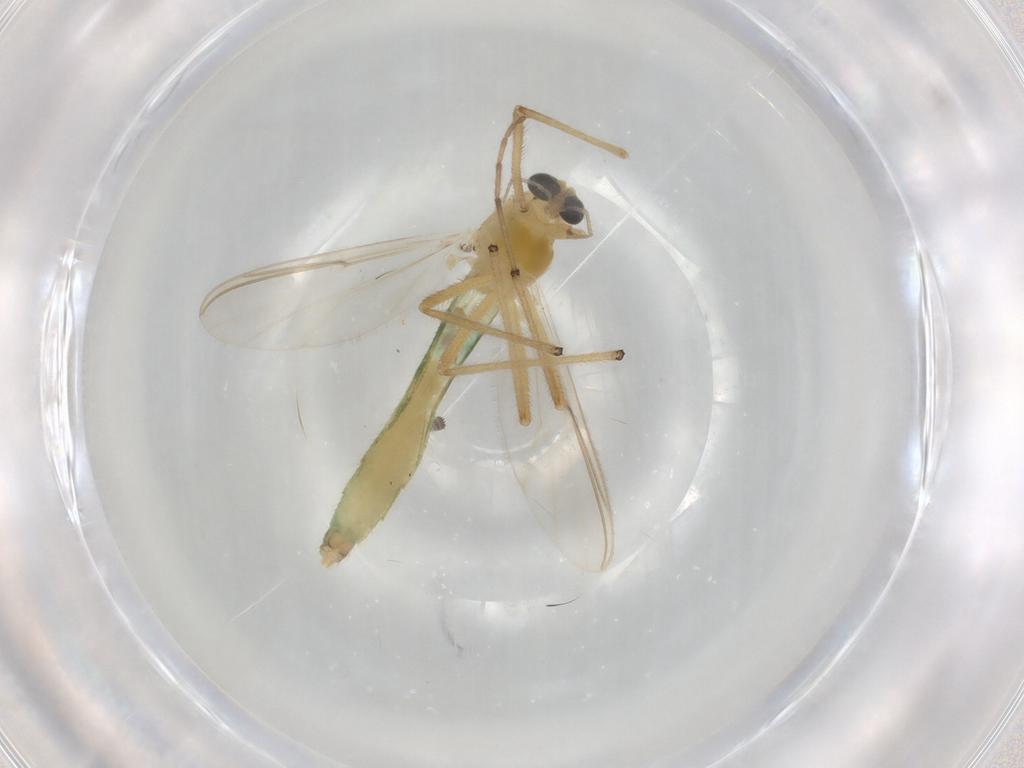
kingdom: Animalia
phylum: Arthropoda
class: Insecta
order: Diptera
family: Chironomidae
